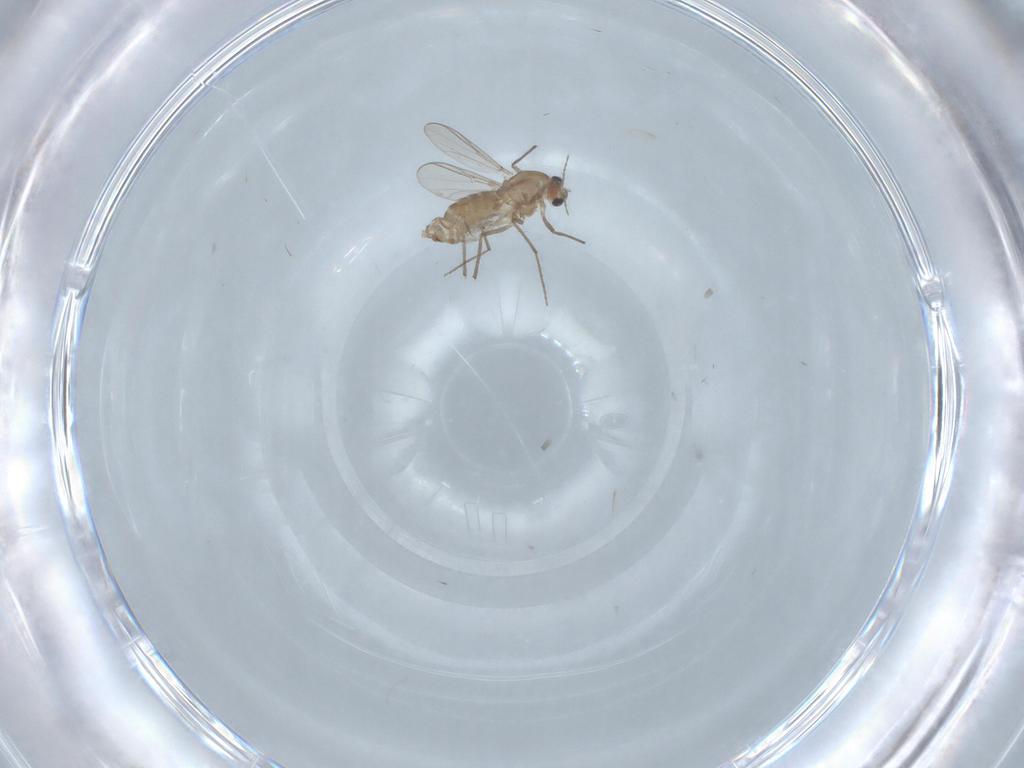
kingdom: Animalia
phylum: Arthropoda
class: Insecta
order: Diptera
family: Chironomidae
